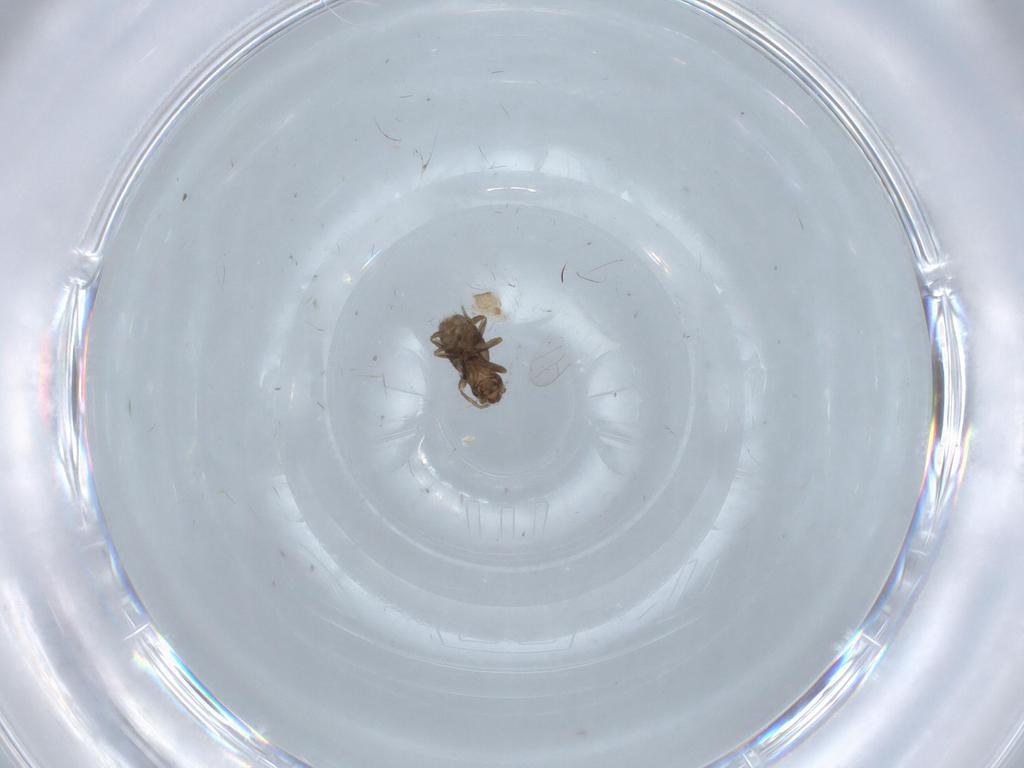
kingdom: Animalia
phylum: Arthropoda
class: Insecta
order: Diptera
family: Cecidomyiidae
